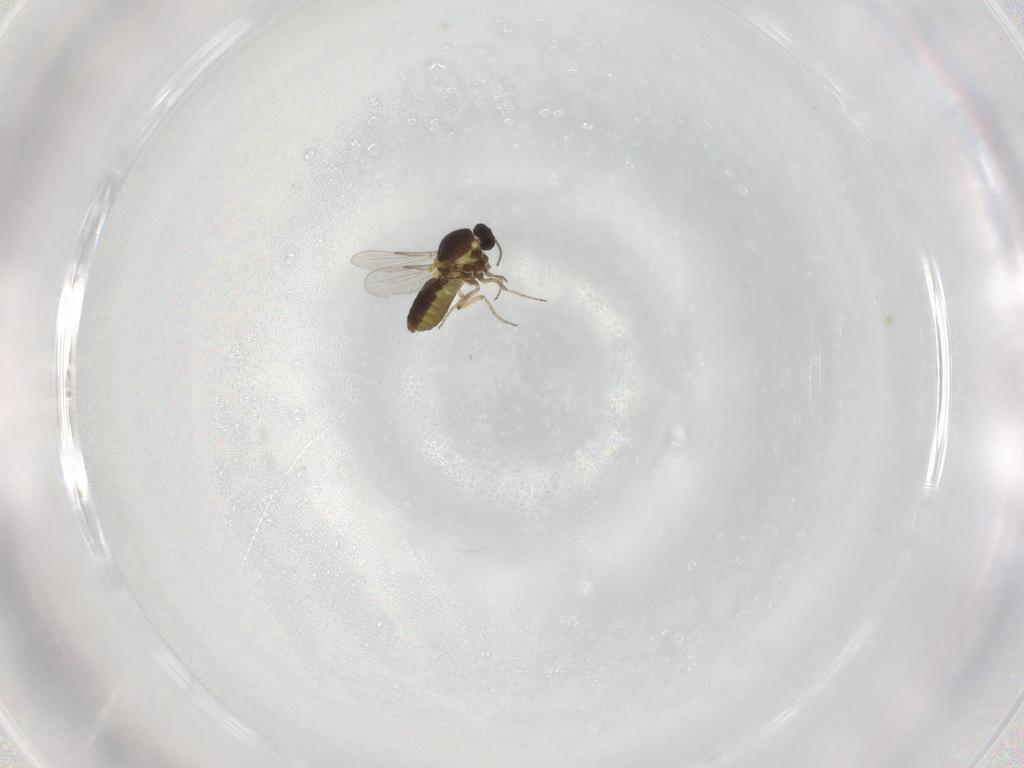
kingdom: Animalia
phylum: Arthropoda
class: Insecta
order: Diptera
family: Ceratopogonidae
